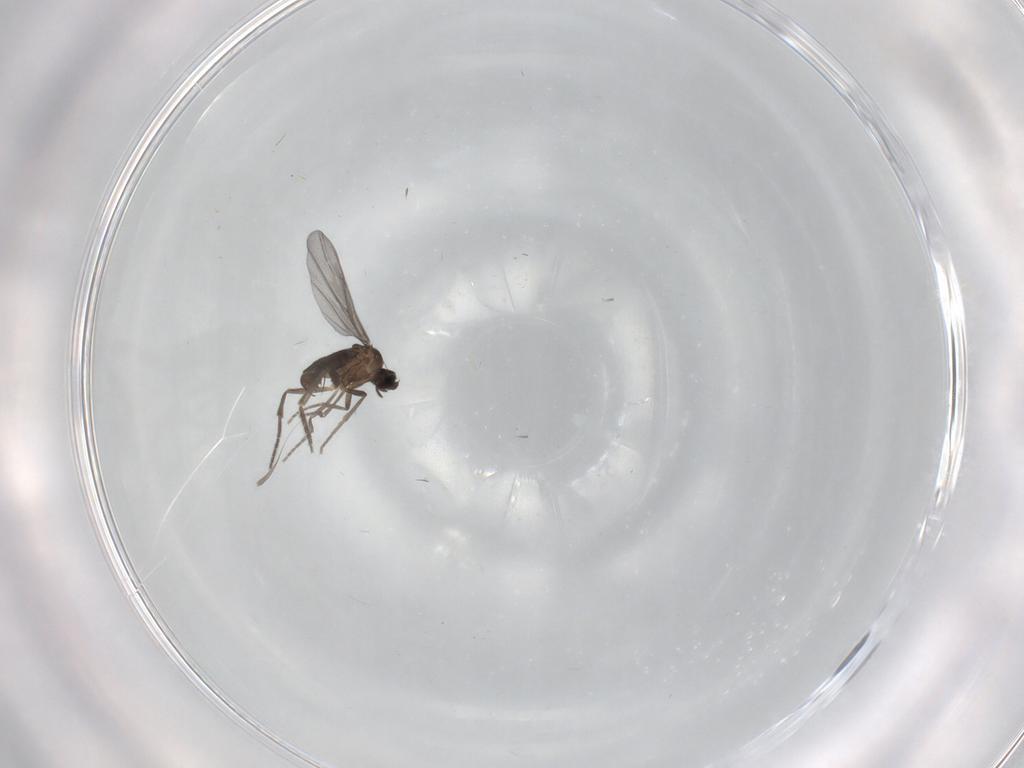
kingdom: Animalia
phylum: Arthropoda
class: Insecta
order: Diptera
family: Phoridae
